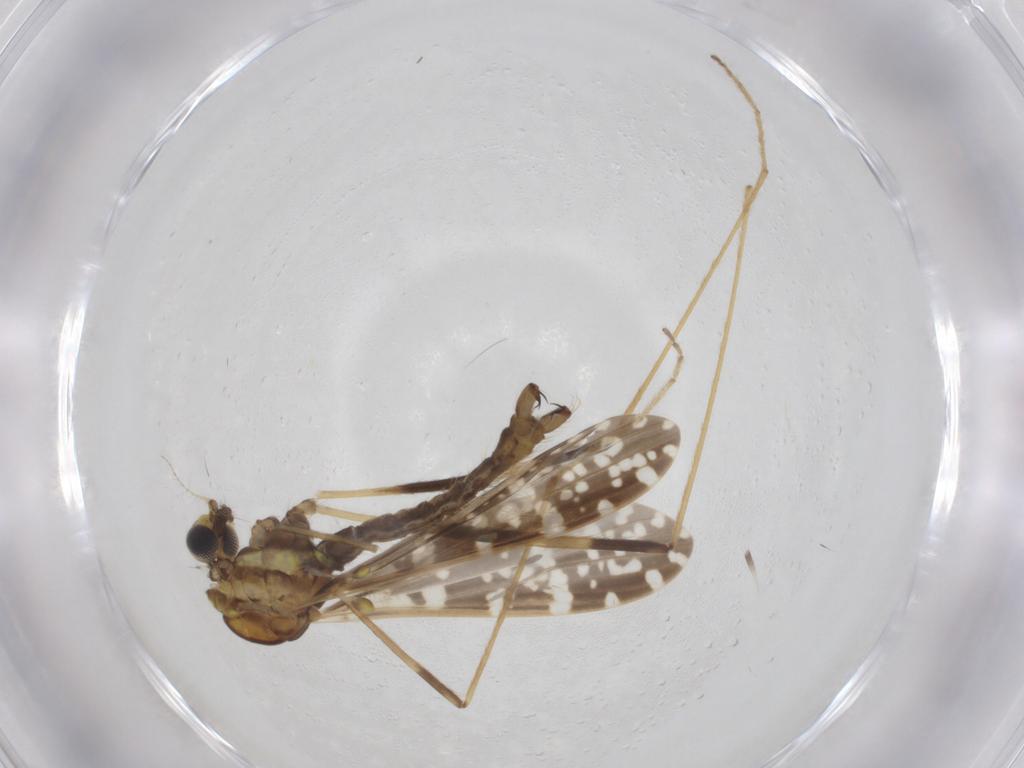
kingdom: Animalia
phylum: Arthropoda
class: Insecta
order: Diptera
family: Limoniidae
